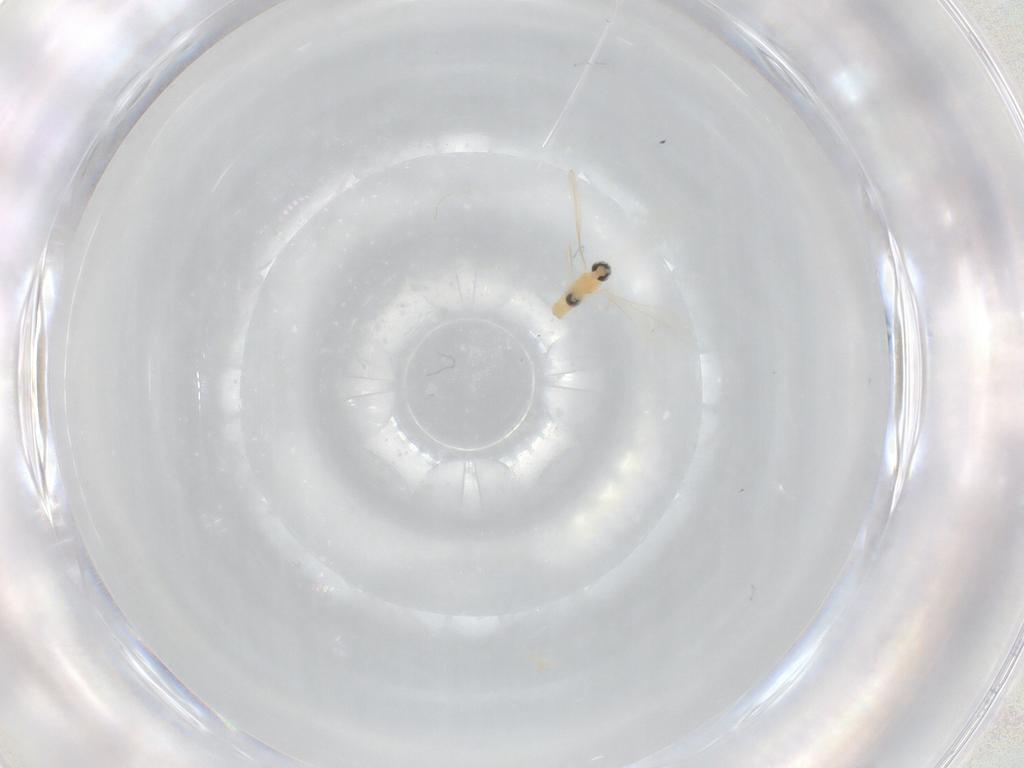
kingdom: Animalia
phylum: Arthropoda
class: Insecta
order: Diptera
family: Cecidomyiidae
